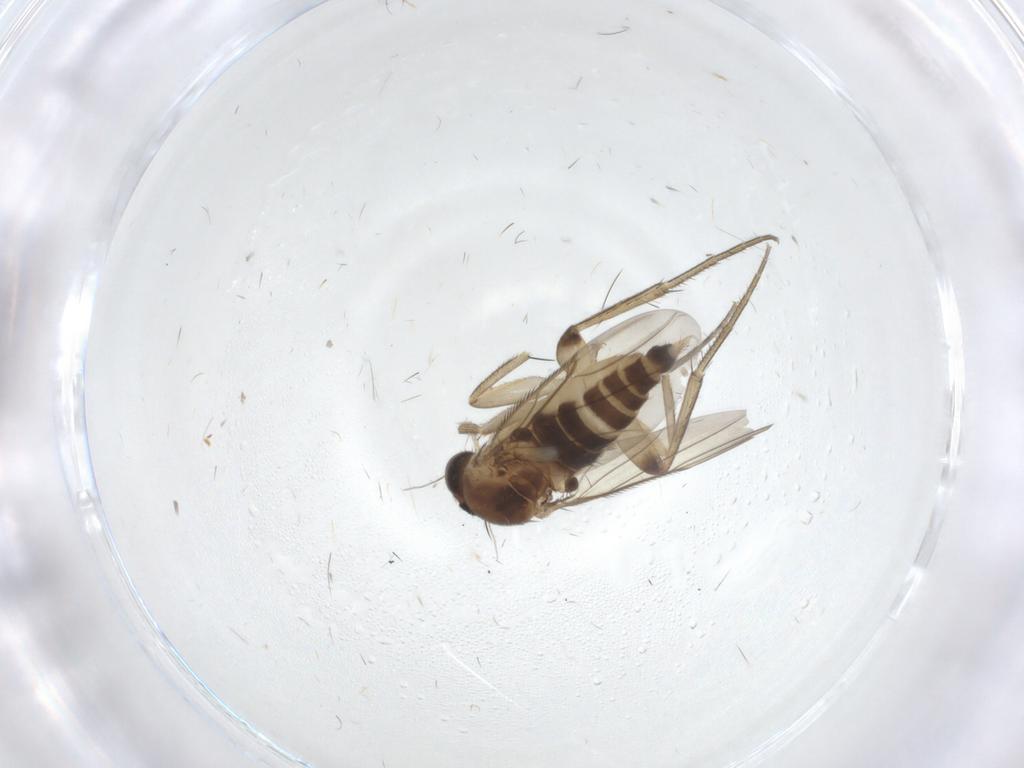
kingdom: Animalia
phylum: Arthropoda
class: Insecta
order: Diptera
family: Phoridae
